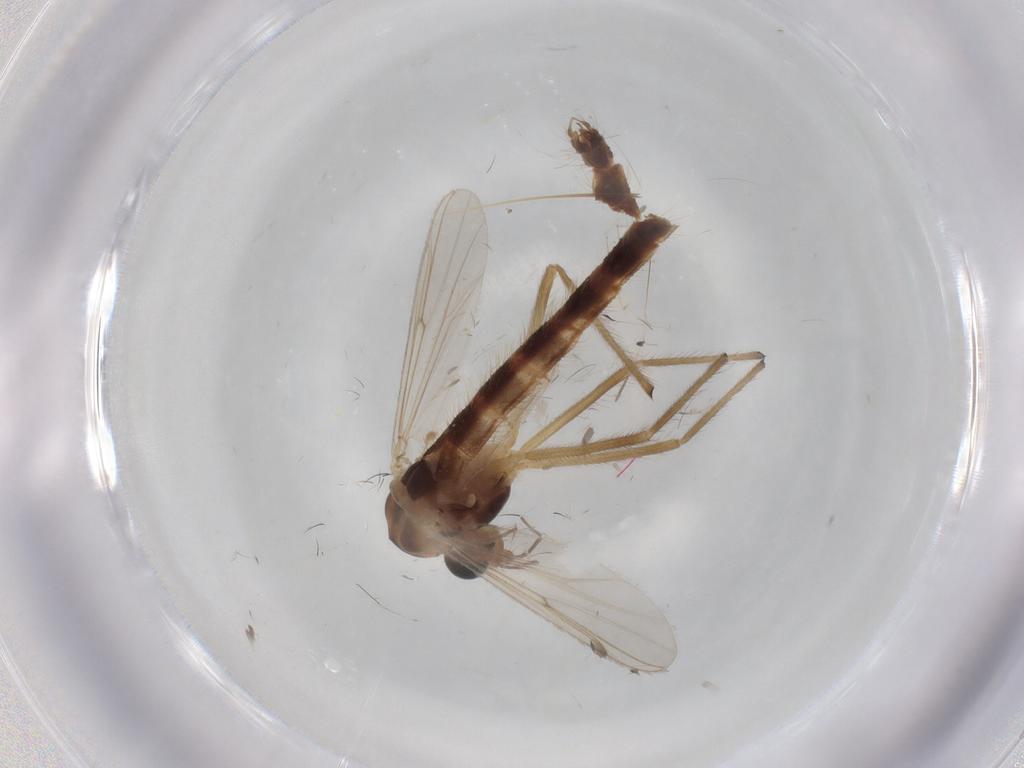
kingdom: Animalia
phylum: Arthropoda
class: Insecta
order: Diptera
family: Chironomidae
